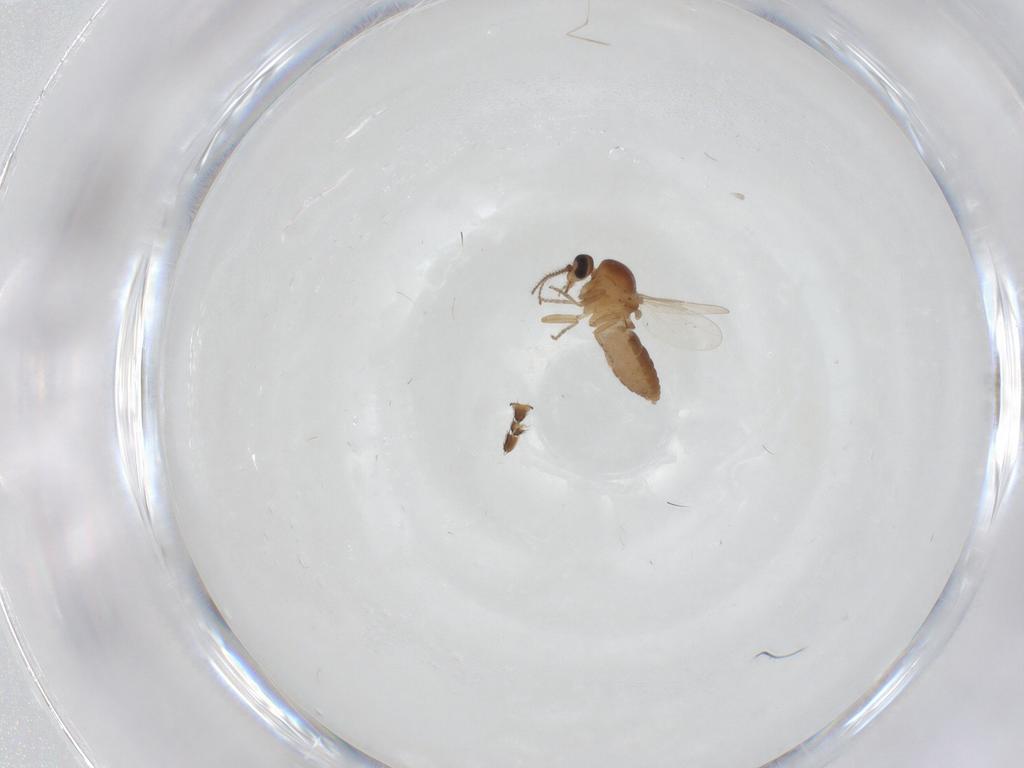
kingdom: Animalia
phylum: Arthropoda
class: Insecta
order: Diptera
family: Ceratopogonidae
